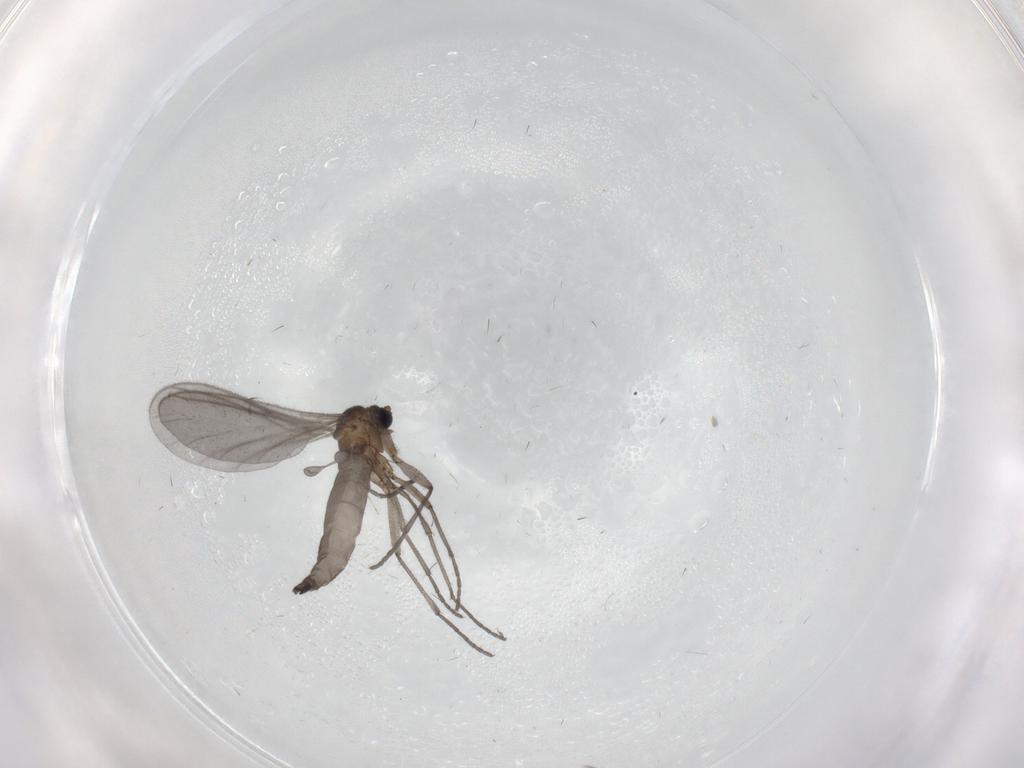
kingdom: Animalia
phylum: Arthropoda
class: Insecta
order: Diptera
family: Sciaridae
